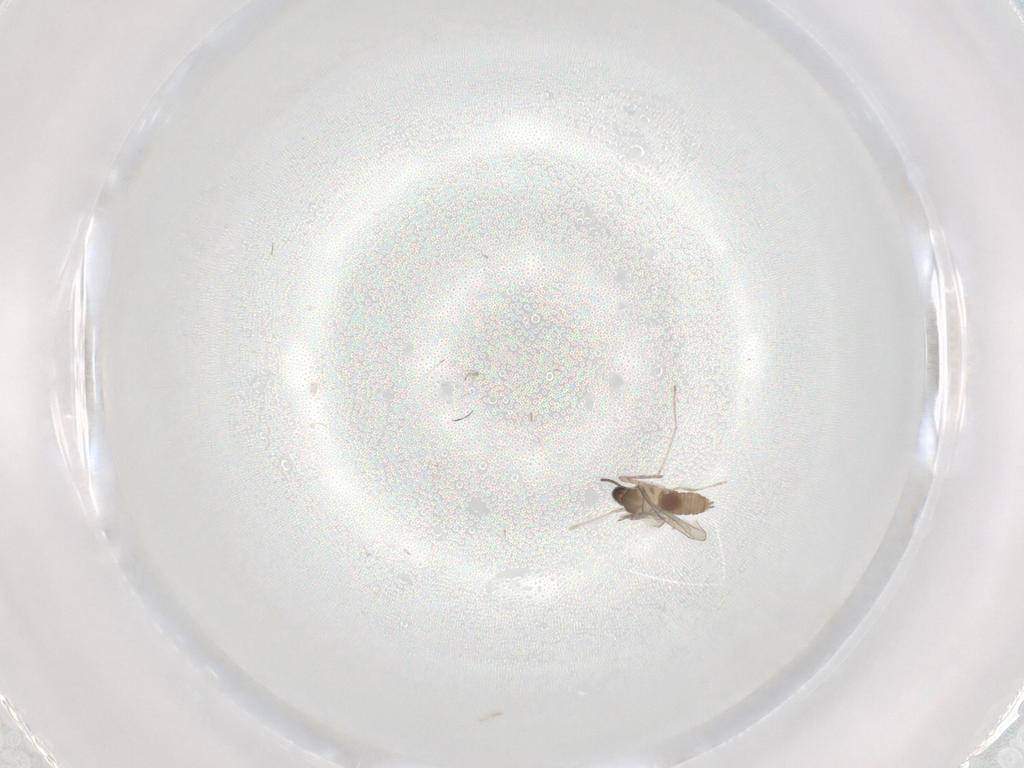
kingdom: Animalia
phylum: Arthropoda
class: Insecta
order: Diptera
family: Cecidomyiidae
